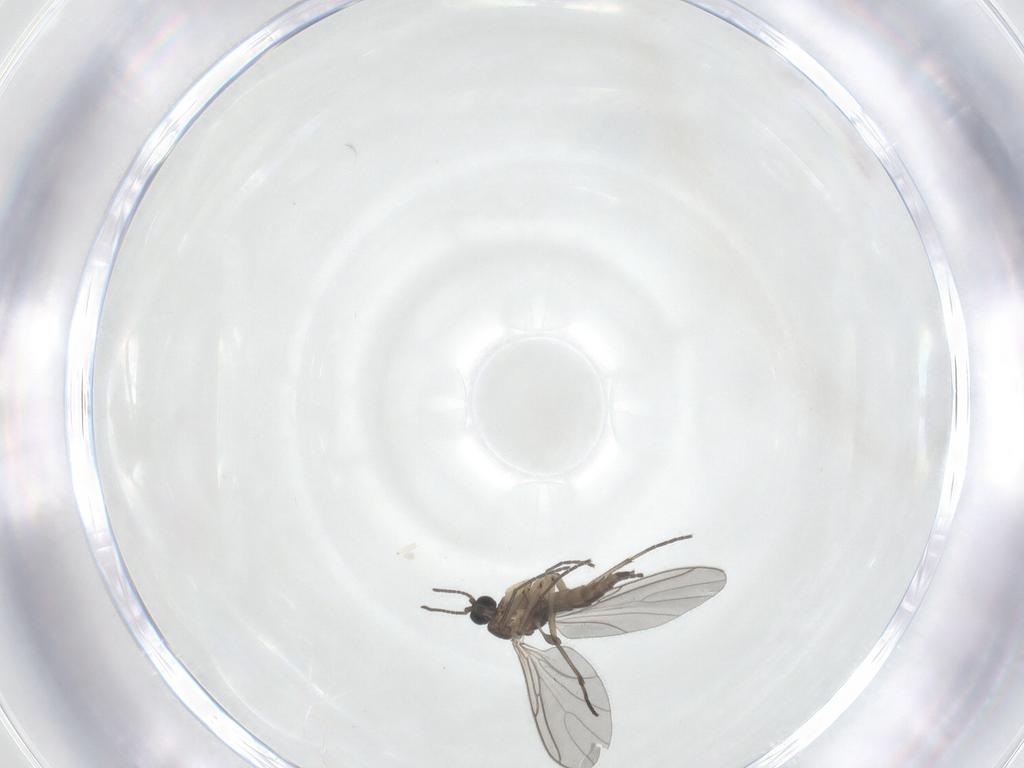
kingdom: Animalia
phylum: Arthropoda
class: Insecta
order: Diptera
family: Sciaridae
